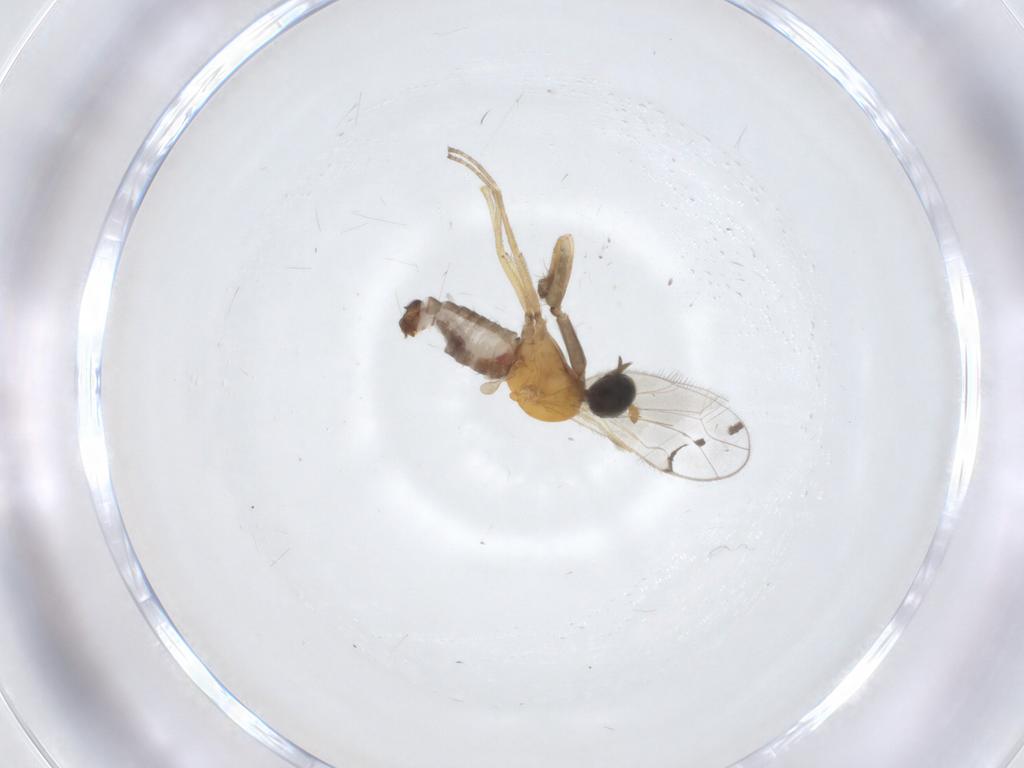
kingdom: Animalia
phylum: Arthropoda
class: Insecta
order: Diptera
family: Empididae
